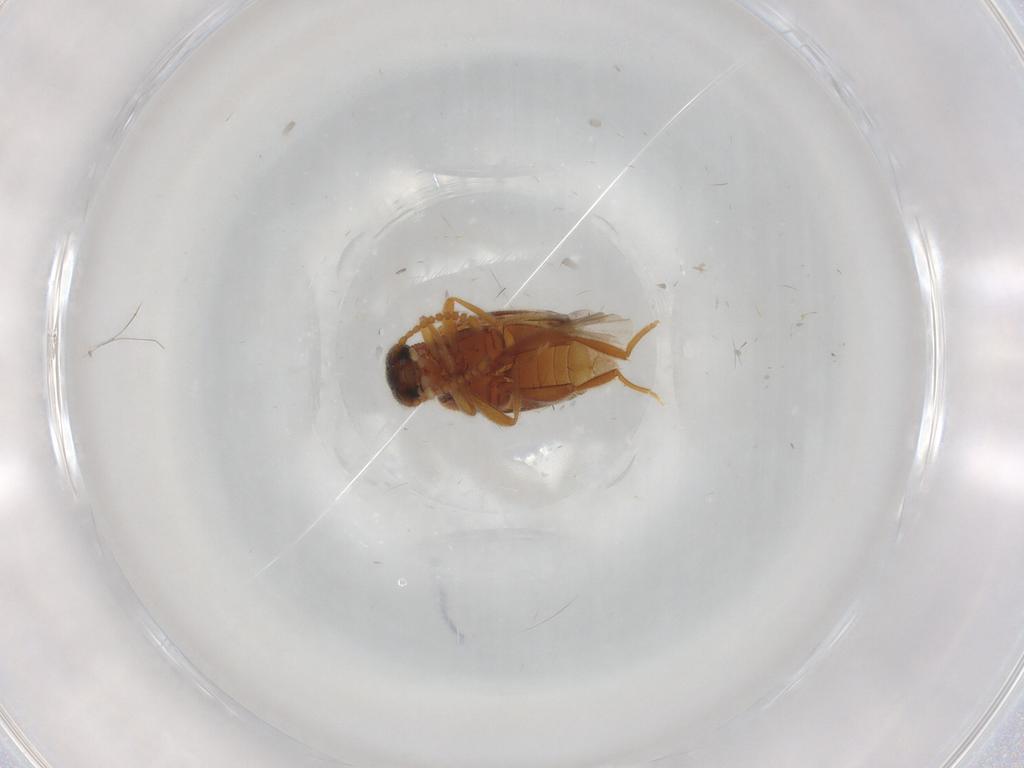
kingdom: Animalia
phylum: Arthropoda
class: Insecta
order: Coleoptera
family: Aderidae
